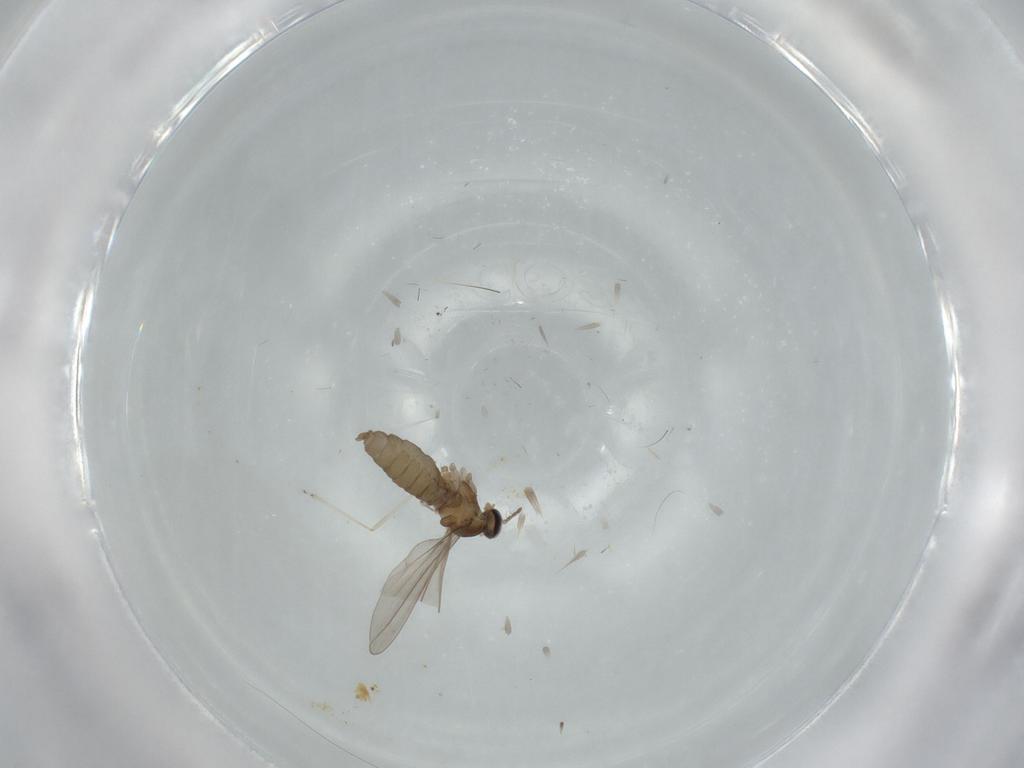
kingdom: Animalia
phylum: Arthropoda
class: Insecta
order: Diptera
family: Cecidomyiidae
